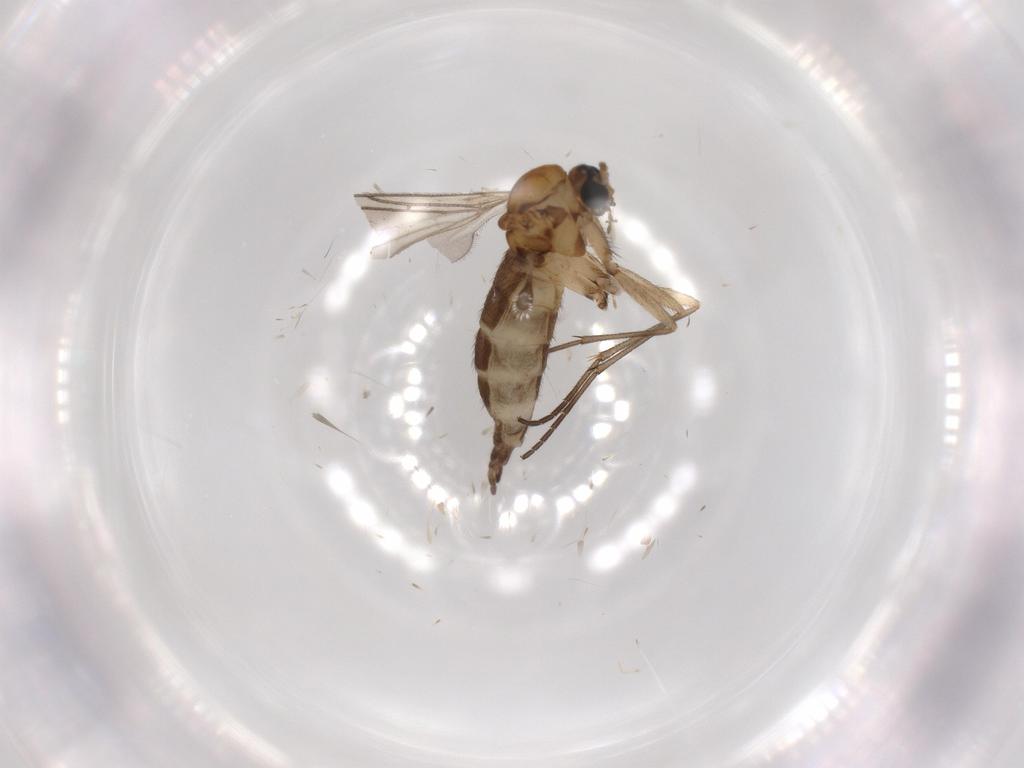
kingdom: Animalia
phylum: Arthropoda
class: Insecta
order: Diptera
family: Sciaridae
